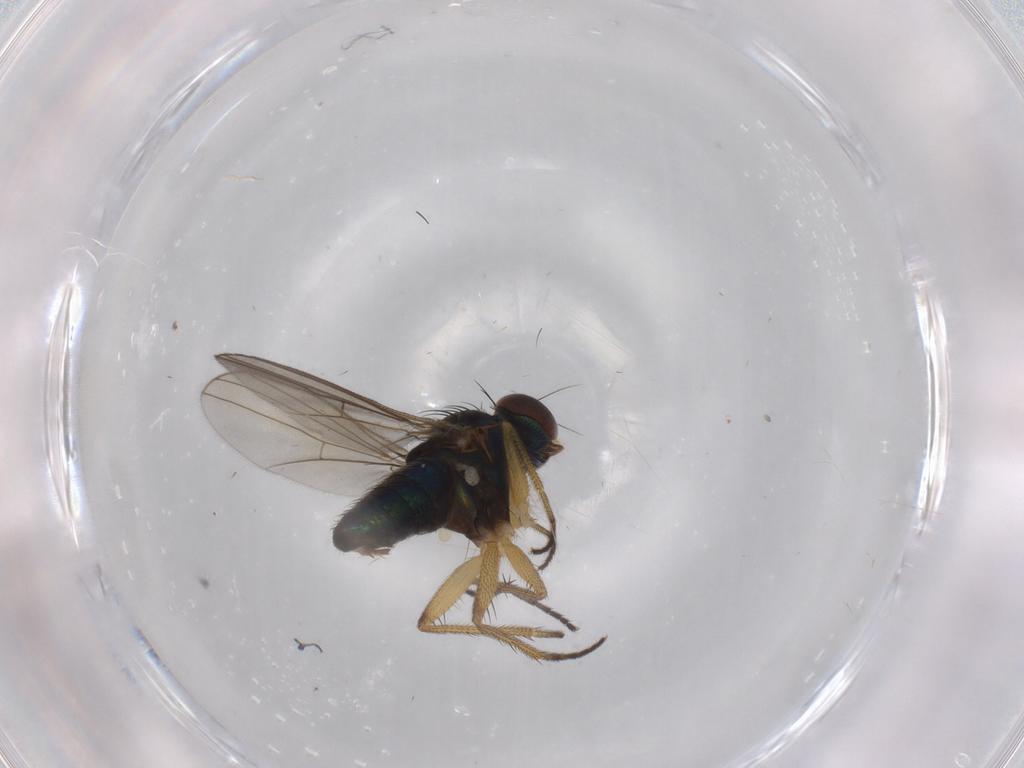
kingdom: Animalia
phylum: Arthropoda
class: Insecta
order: Diptera
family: Dolichopodidae
